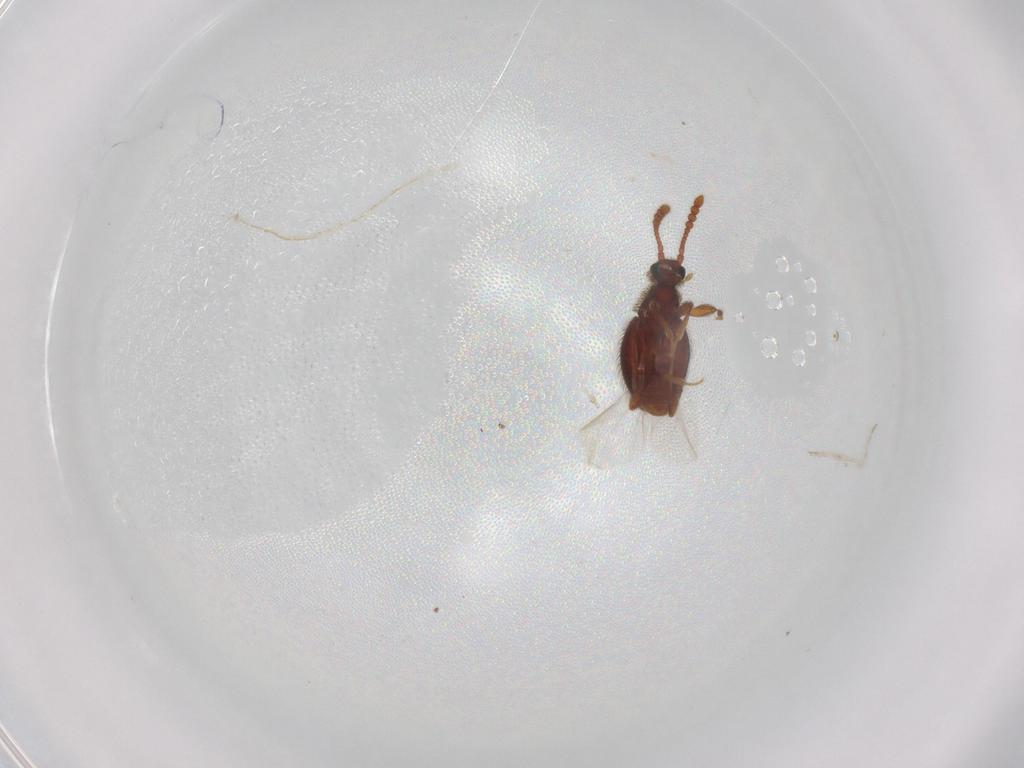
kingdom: Animalia
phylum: Arthropoda
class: Insecta
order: Coleoptera
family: Staphylinidae
